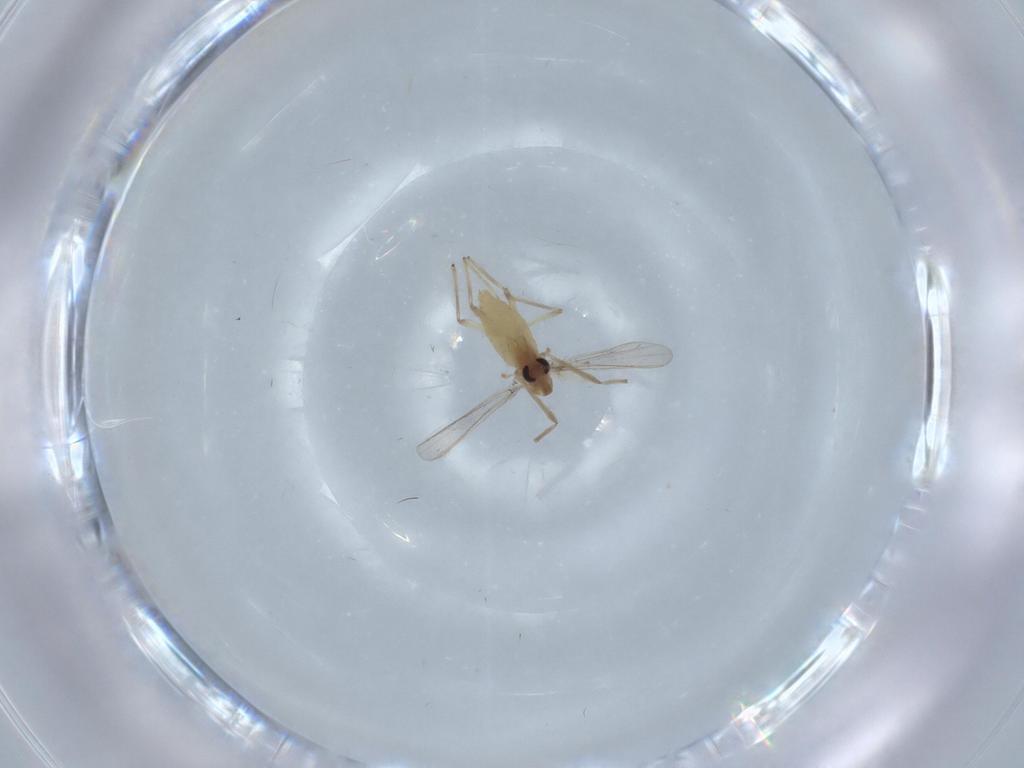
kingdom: Animalia
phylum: Arthropoda
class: Insecta
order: Diptera
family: Chironomidae
